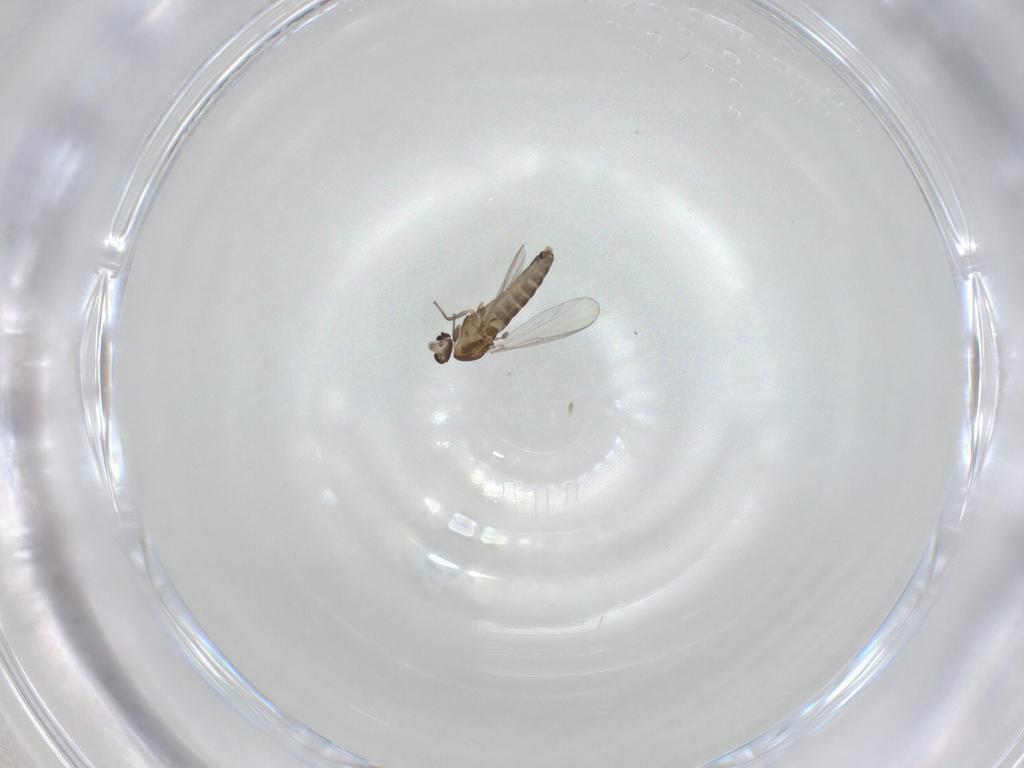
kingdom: Animalia
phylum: Arthropoda
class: Insecta
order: Diptera
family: Chironomidae
